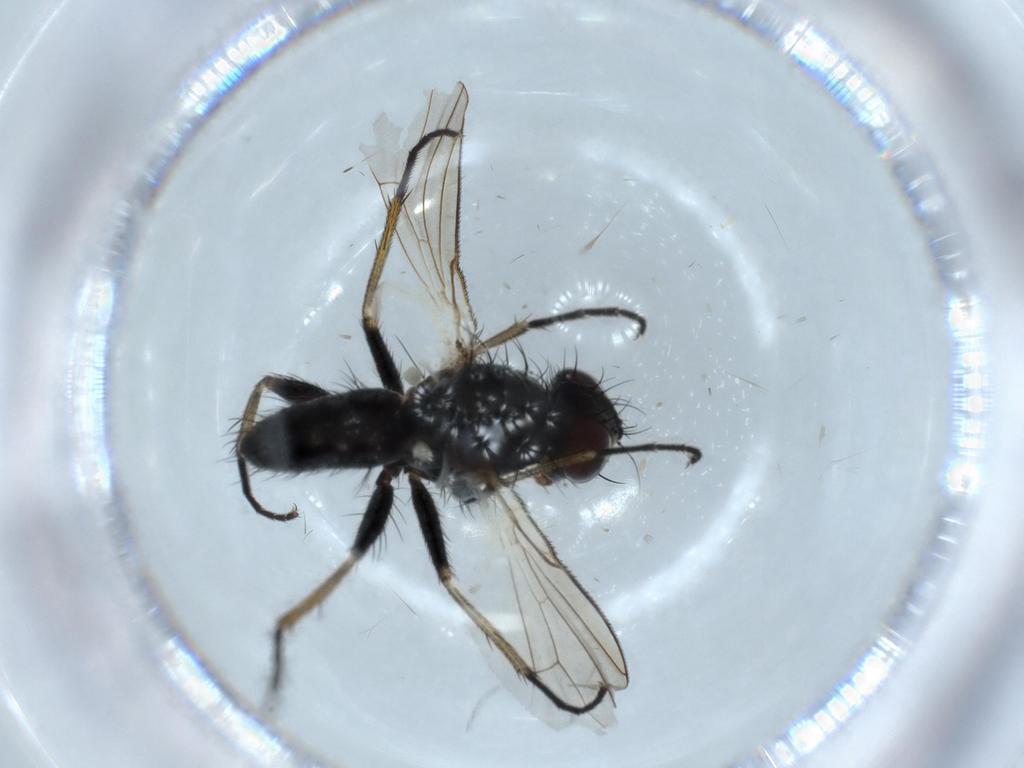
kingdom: Animalia
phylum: Arthropoda
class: Insecta
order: Diptera
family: Muscidae
